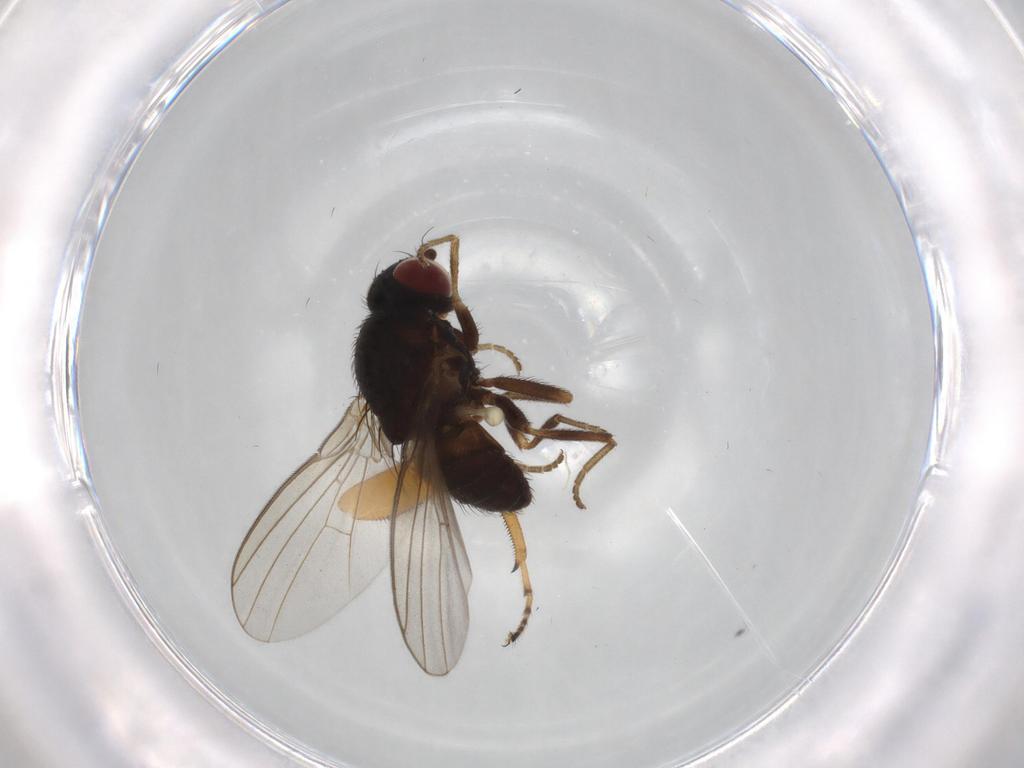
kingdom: Animalia
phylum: Arthropoda
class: Insecta
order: Diptera
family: Hybotidae
